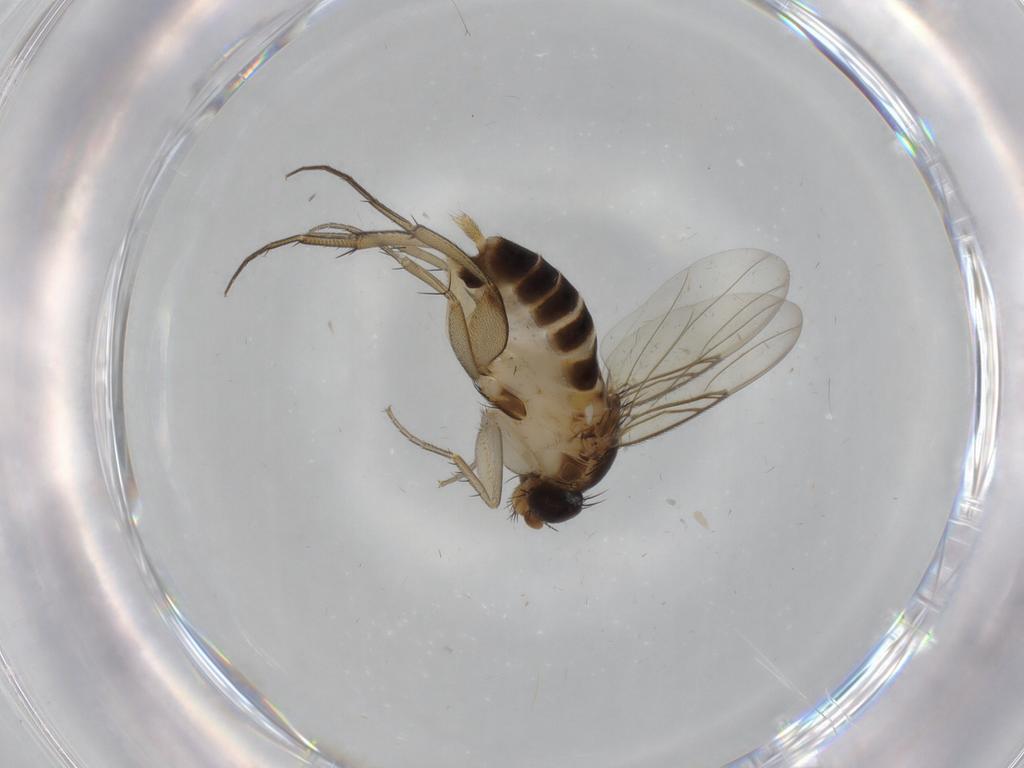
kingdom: Animalia
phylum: Arthropoda
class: Insecta
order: Diptera
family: Phoridae
